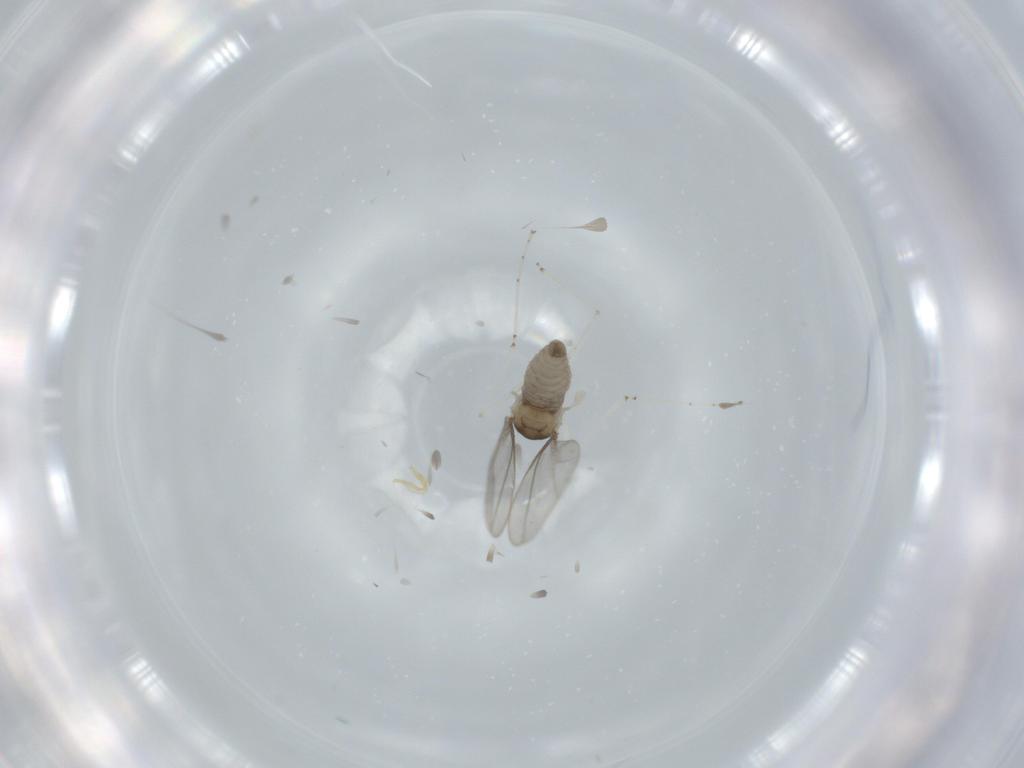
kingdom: Animalia
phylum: Arthropoda
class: Insecta
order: Diptera
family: Cecidomyiidae
